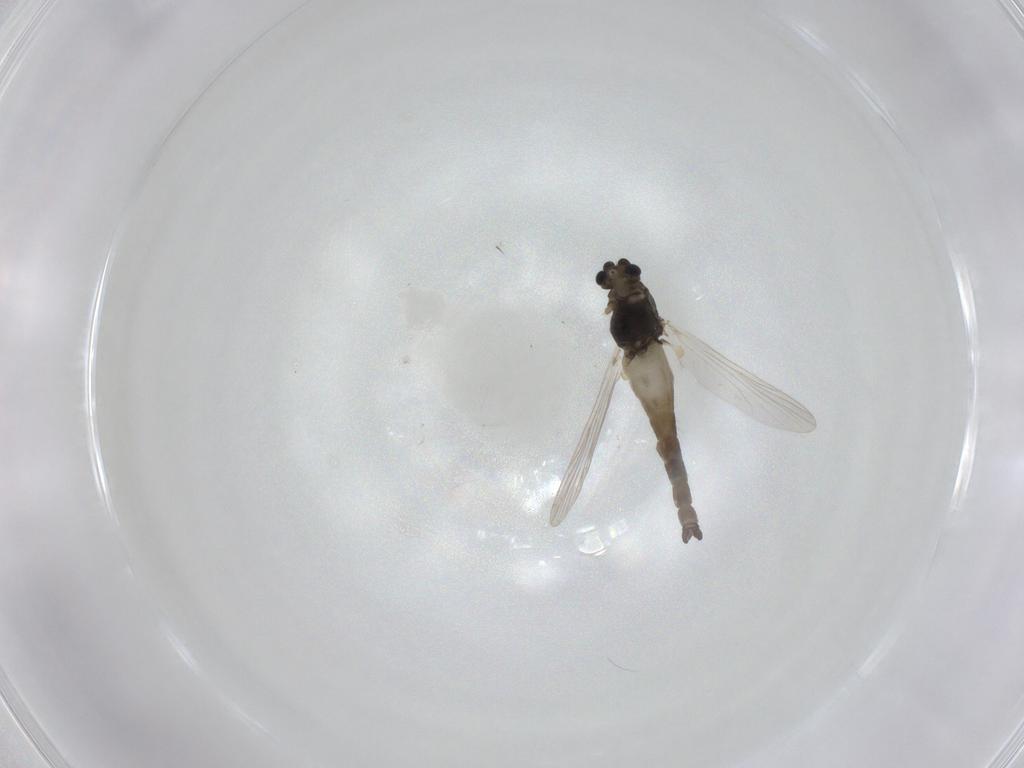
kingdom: Animalia
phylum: Arthropoda
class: Insecta
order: Diptera
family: Chironomidae
